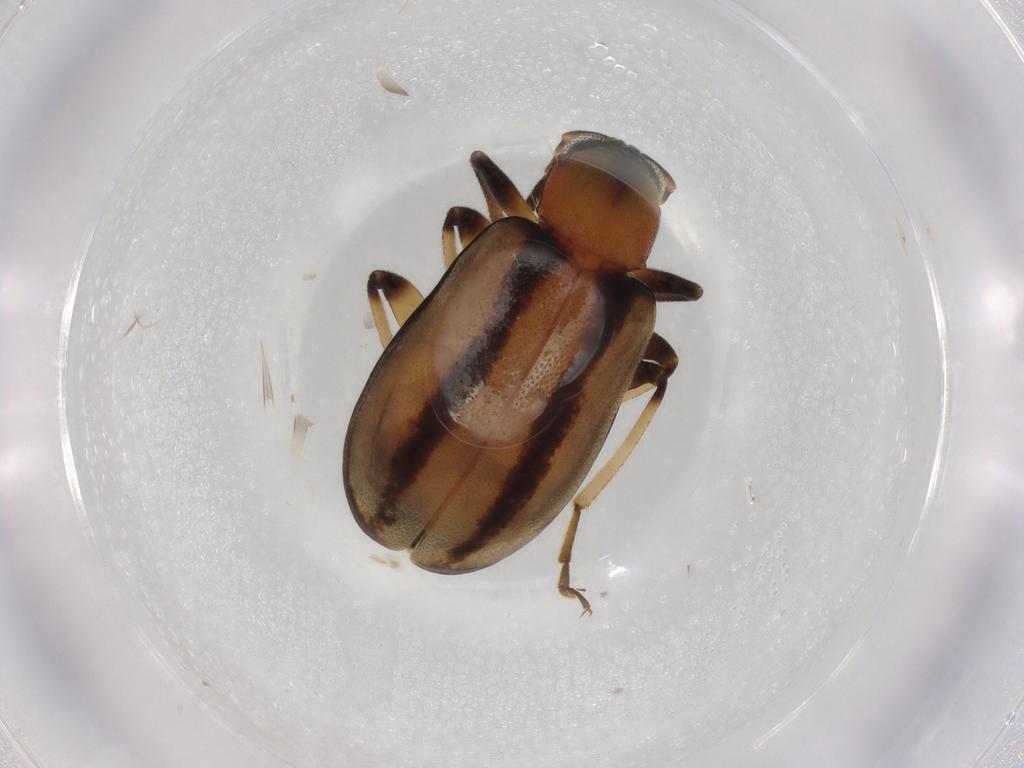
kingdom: Animalia
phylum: Arthropoda
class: Insecta
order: Coleoptera
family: Chrysomelidae
